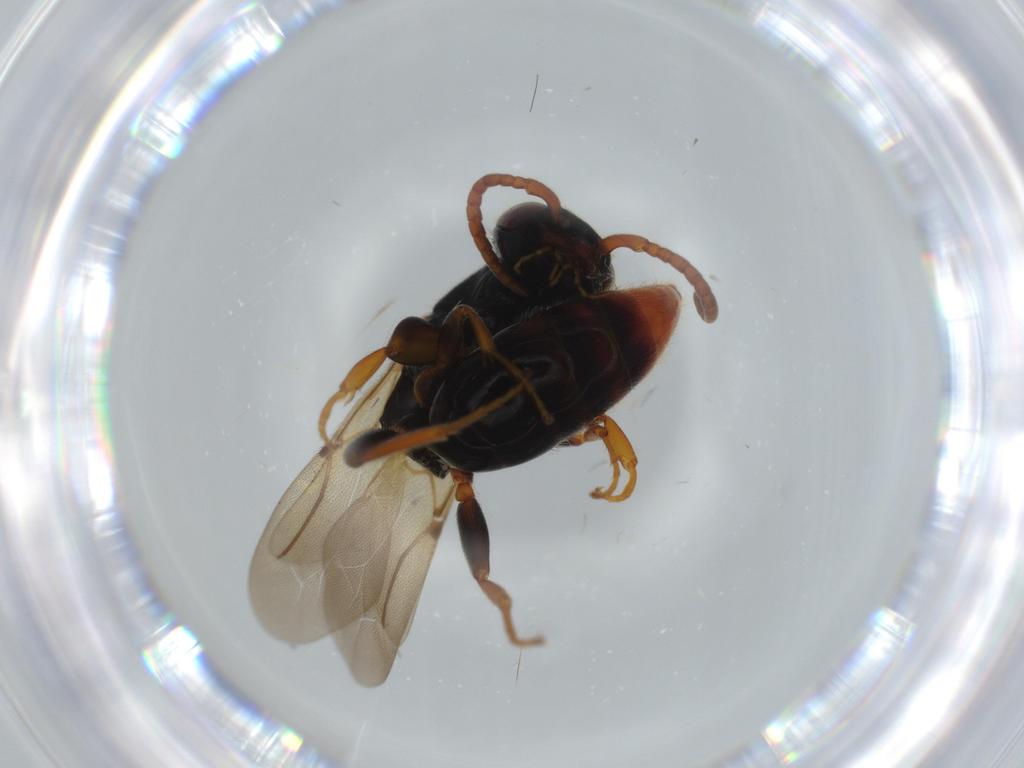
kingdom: Animalia
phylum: Arthropoda
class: Insecta
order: Hymenoptera
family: Bethylidae
